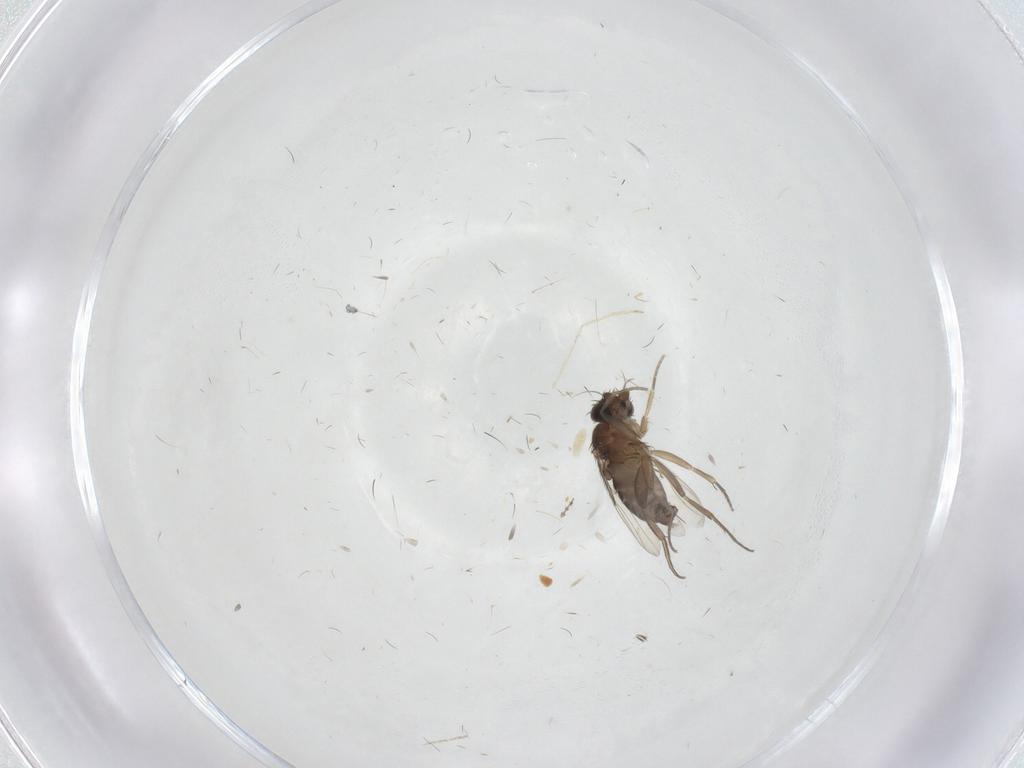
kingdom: Animalia
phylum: Arthropoda
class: Insecta
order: Diptera
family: Phoridae
